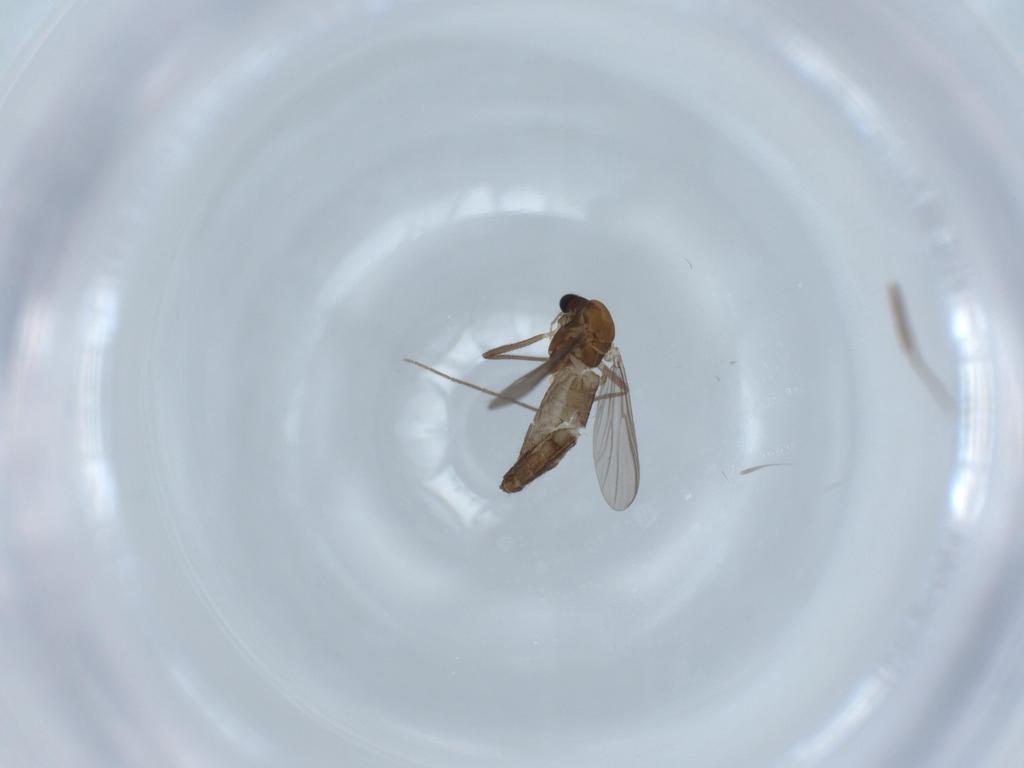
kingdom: Animalia
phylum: Arthropoda
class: Insecta
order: Diptera
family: Chironomidae
